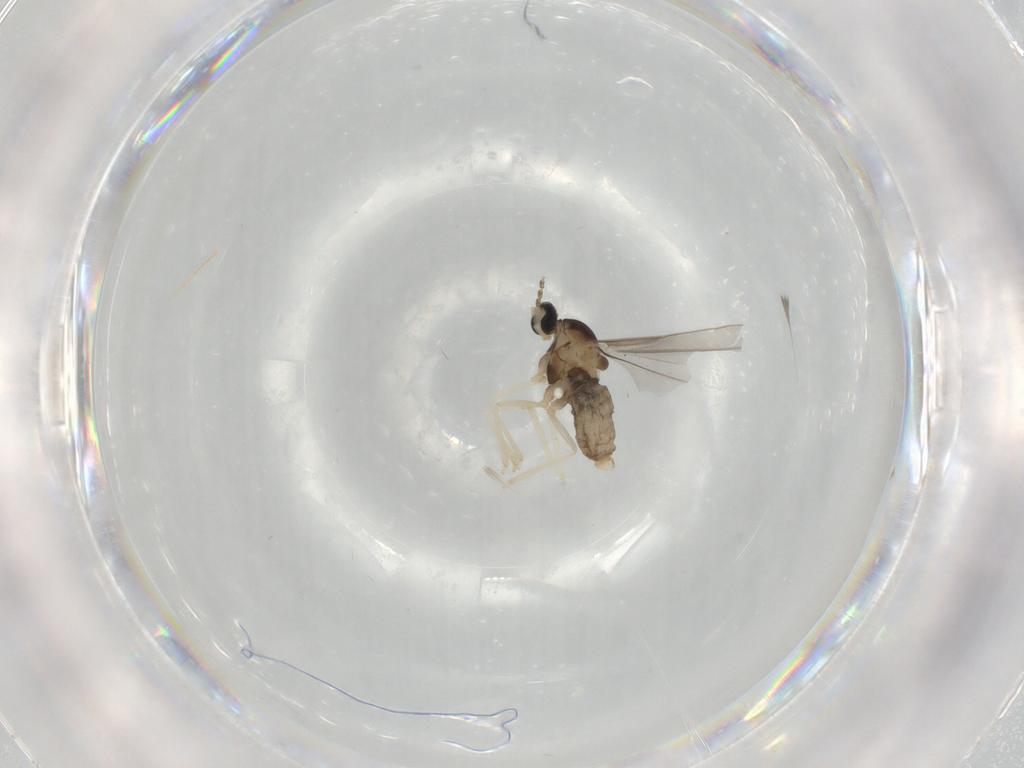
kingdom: Animalia
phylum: Arthropoda
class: Insecta
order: Diptera
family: Cecidomyiidae
